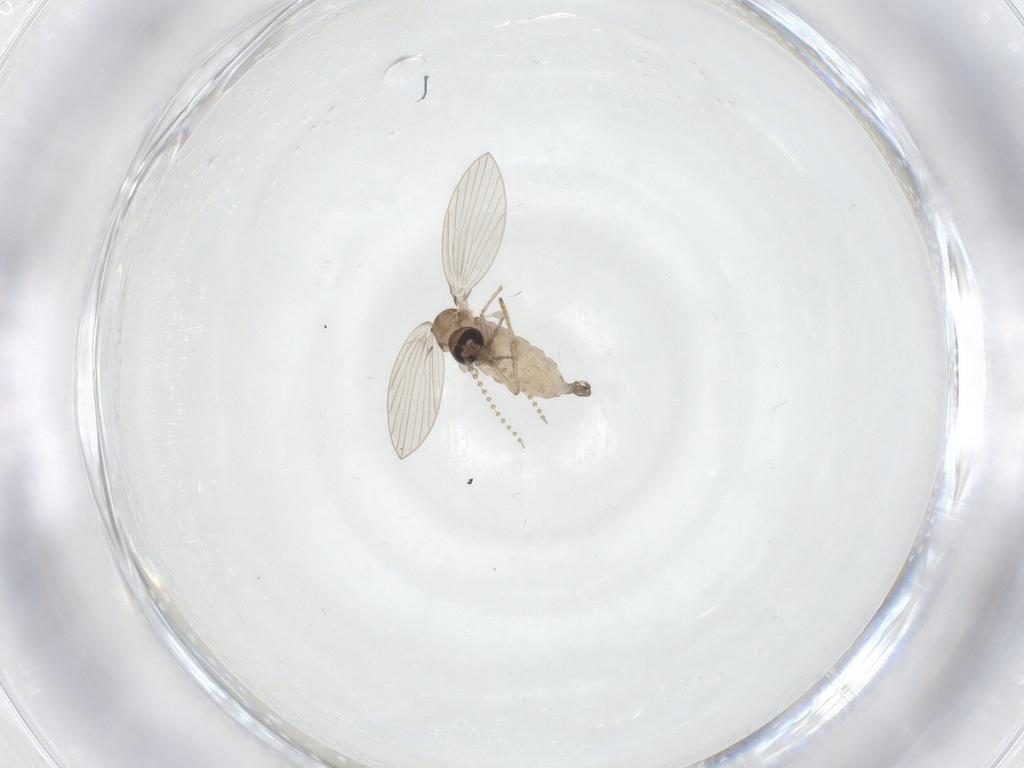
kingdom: Animalia
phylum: Arthropoda
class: Insecta
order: Diptera
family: Psychodidae
